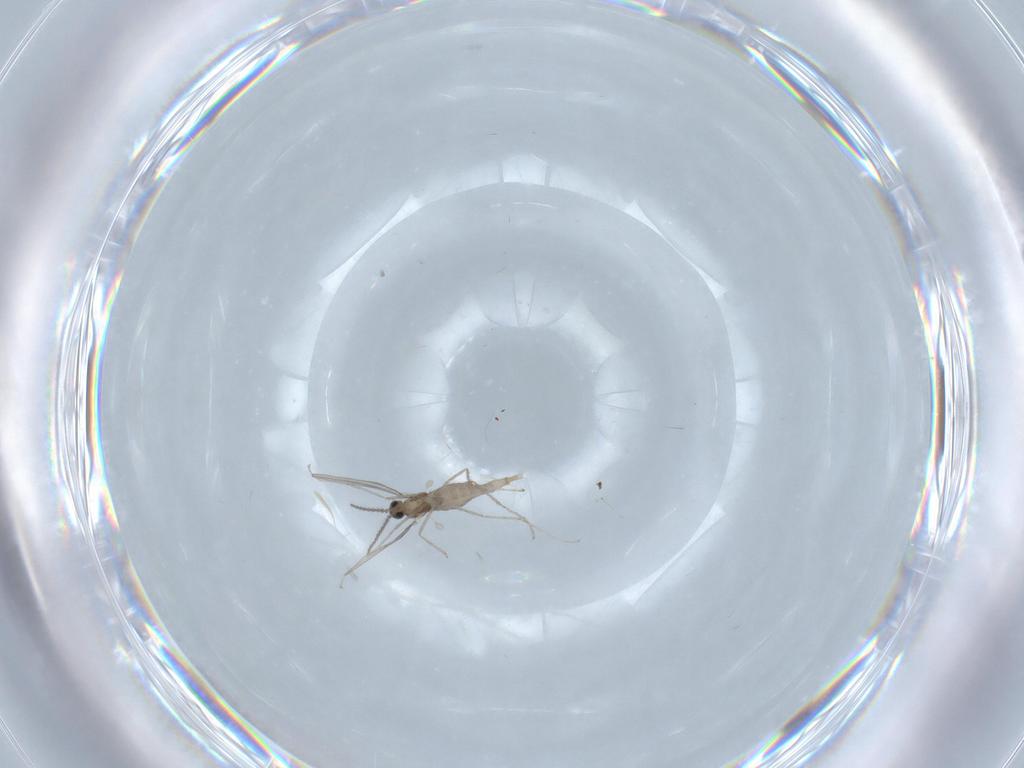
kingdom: Animalia
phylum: Arthropoda
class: Insecta
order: Diptera
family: Cecidomyiidae
